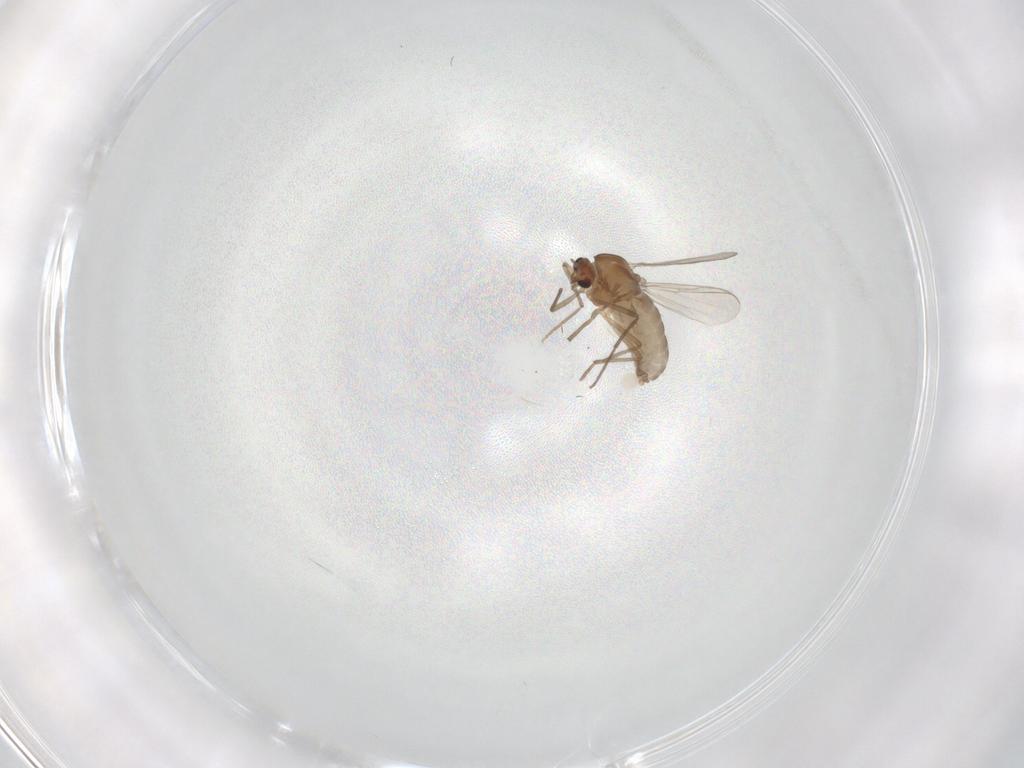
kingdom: Animalia
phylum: Arthropoda
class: Insecta
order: Diptera
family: Chironomidae
